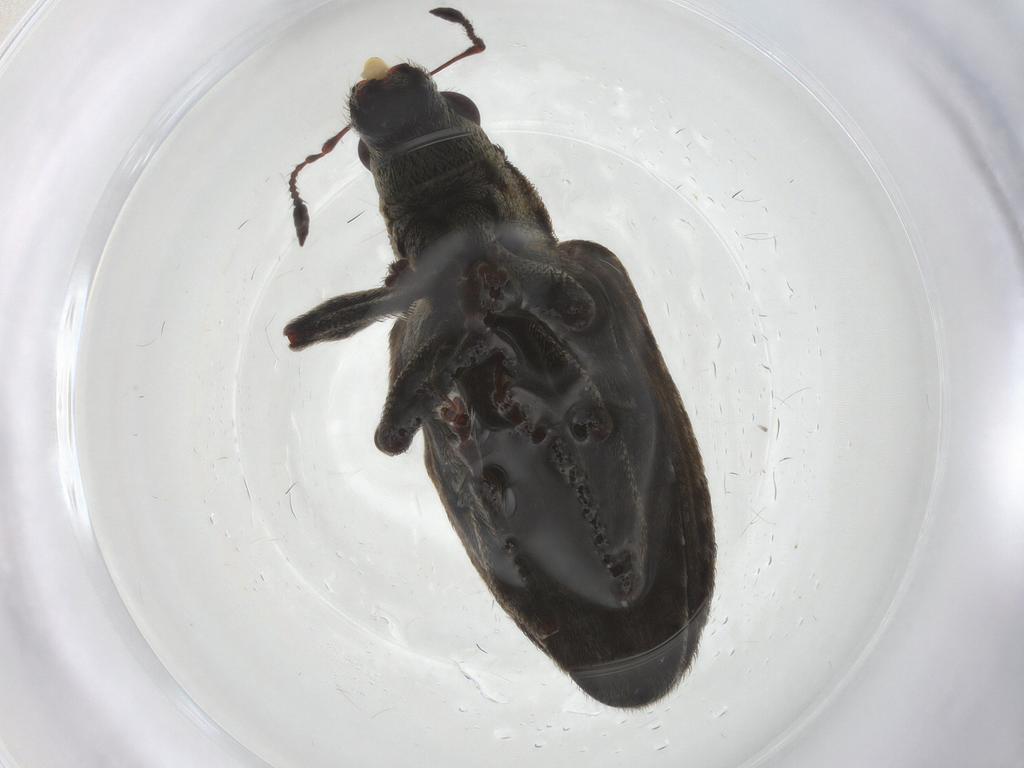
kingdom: Animalia
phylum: Arthropoda
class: Insecta
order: Coleoptera
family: Curculionidae
